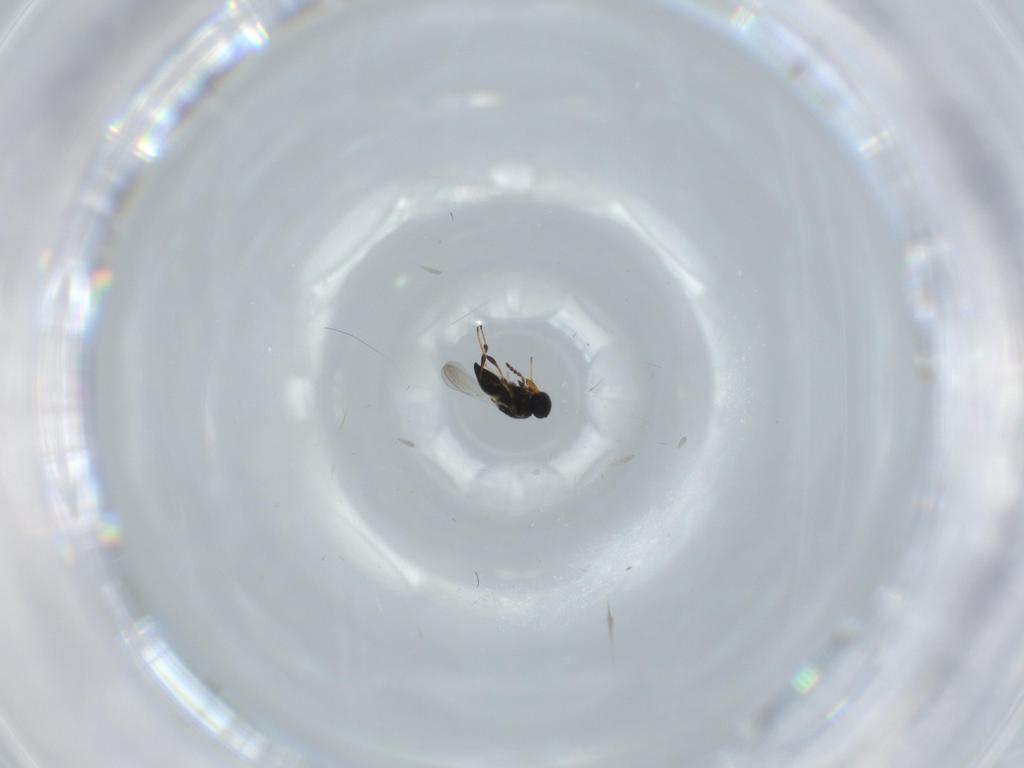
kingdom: Animalia
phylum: Arthropoda
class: Insecta
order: Hymenoptera
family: Platygastridae
